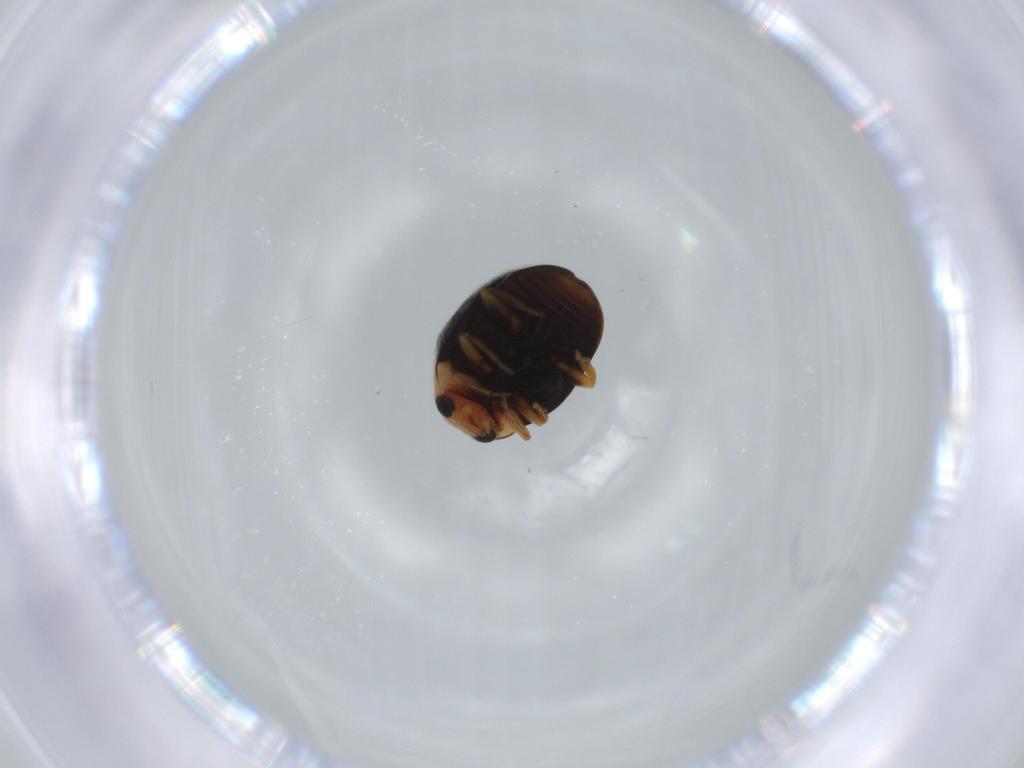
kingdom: Animalia
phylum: Arthropoda
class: Insecta
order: Coleoptera
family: Coccinellidae
